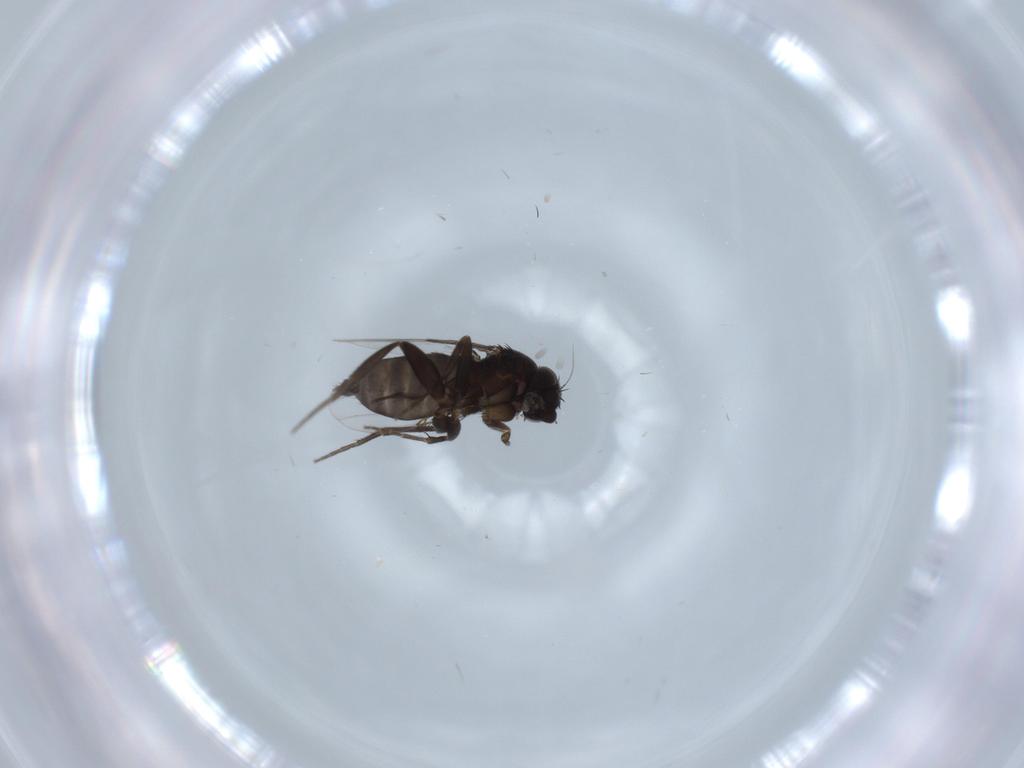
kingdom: Animalia
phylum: Arthropoda
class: Insecta
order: Diptera
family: Phoridae
